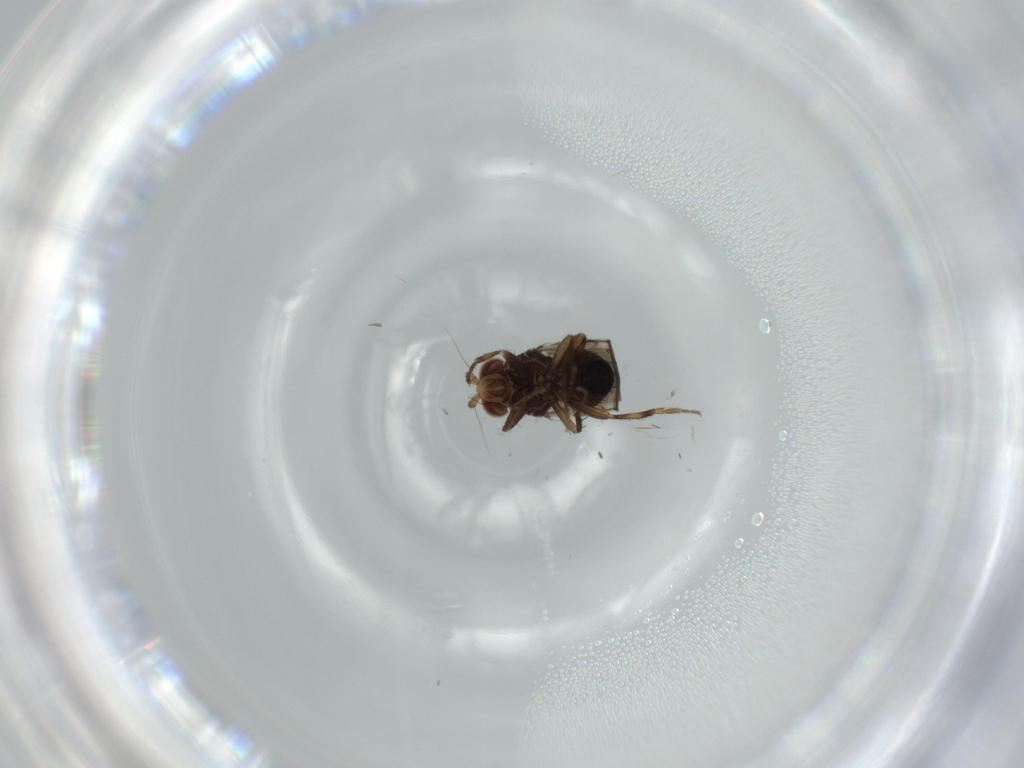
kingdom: Animalia
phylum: Arthropoda
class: Insecta
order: Diptera
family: Sphaeroceridae
